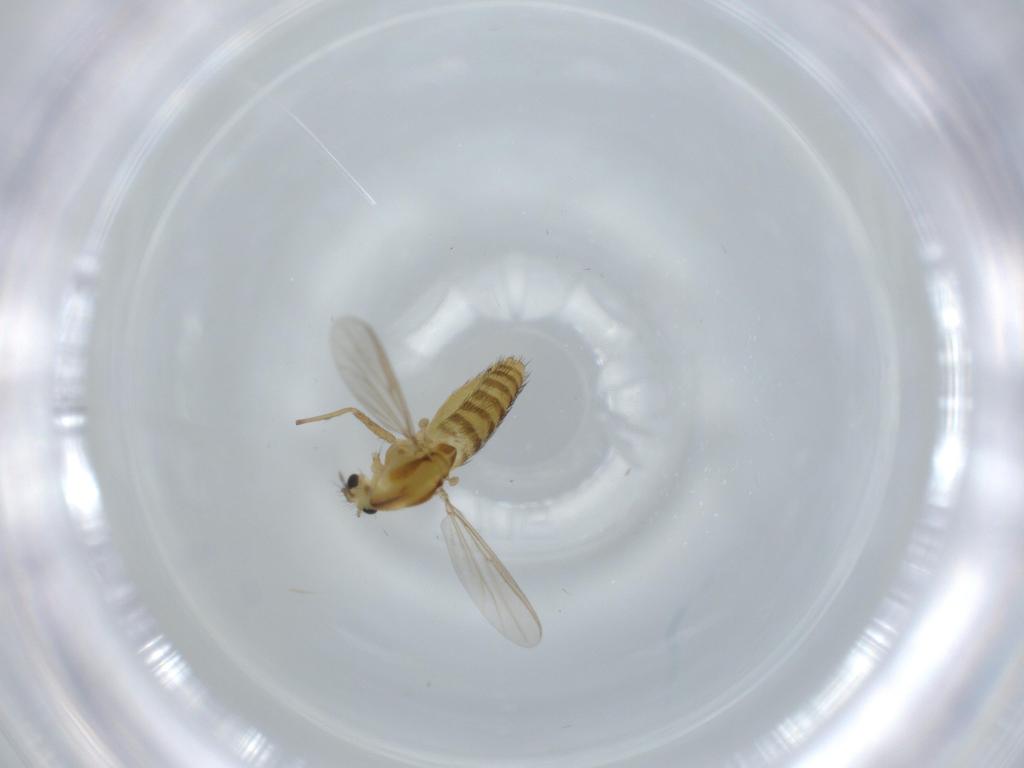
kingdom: Animalia
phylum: Arthropoda
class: Insecta
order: Diptera
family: Chironomidae
